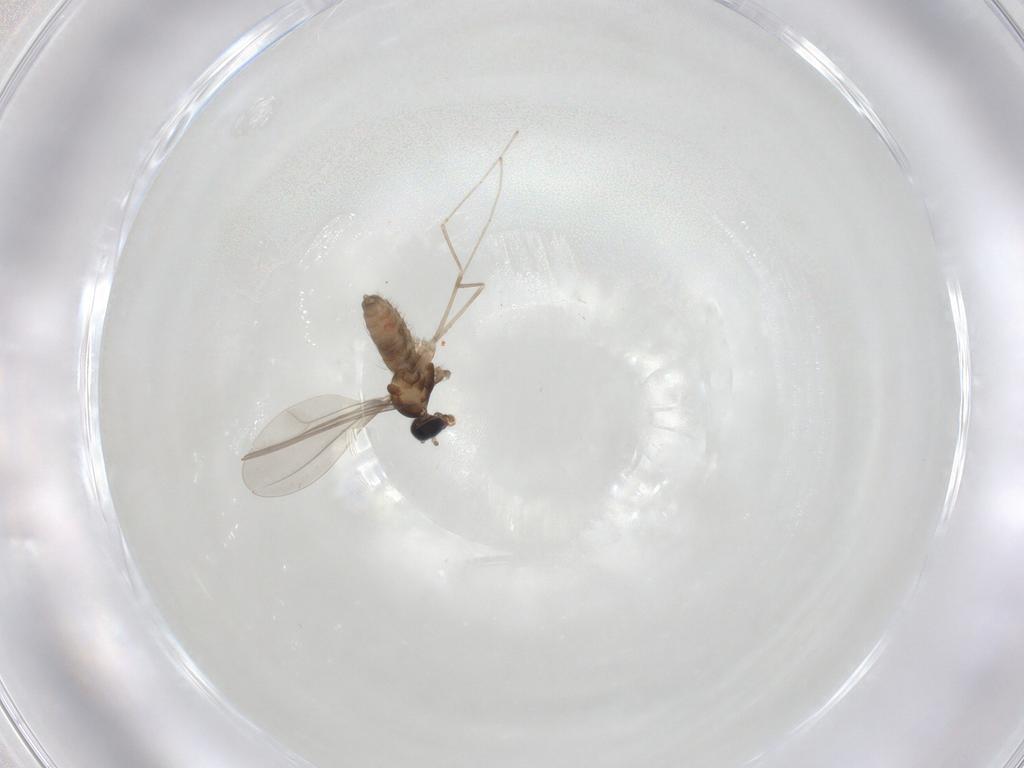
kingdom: Animalia
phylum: Arthropoda
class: Insecta
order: Diptera
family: Cecidomyiidae
